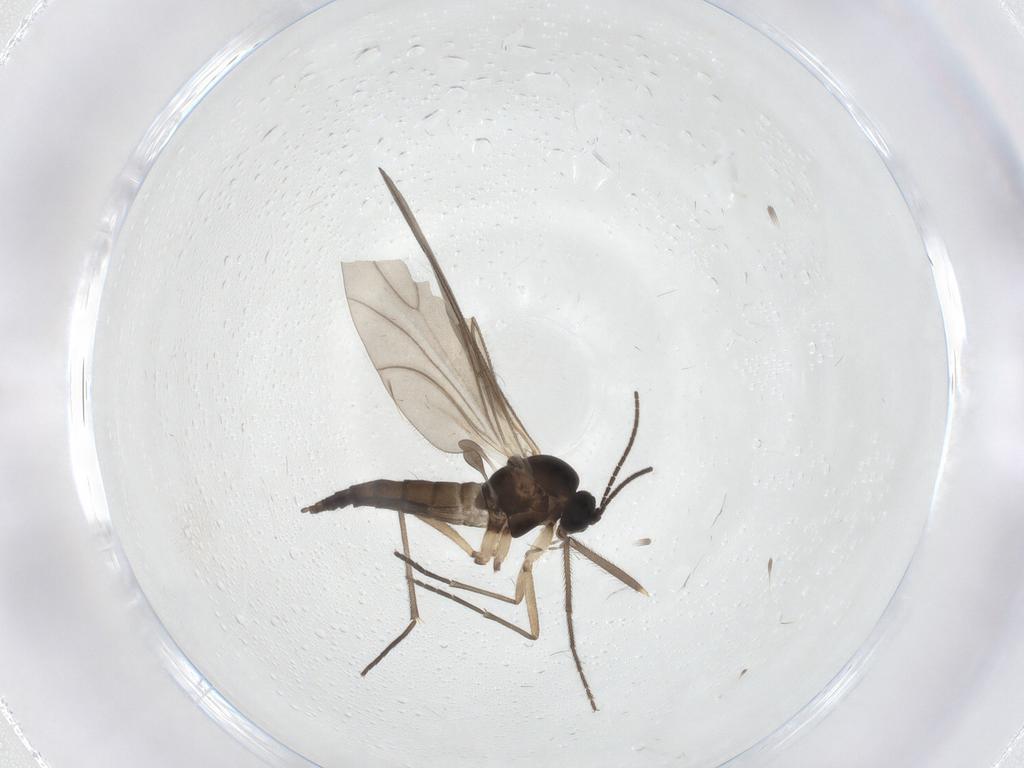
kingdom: Animalia
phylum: Arthropoda
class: Insecta
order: Diptera
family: Sciaridae
